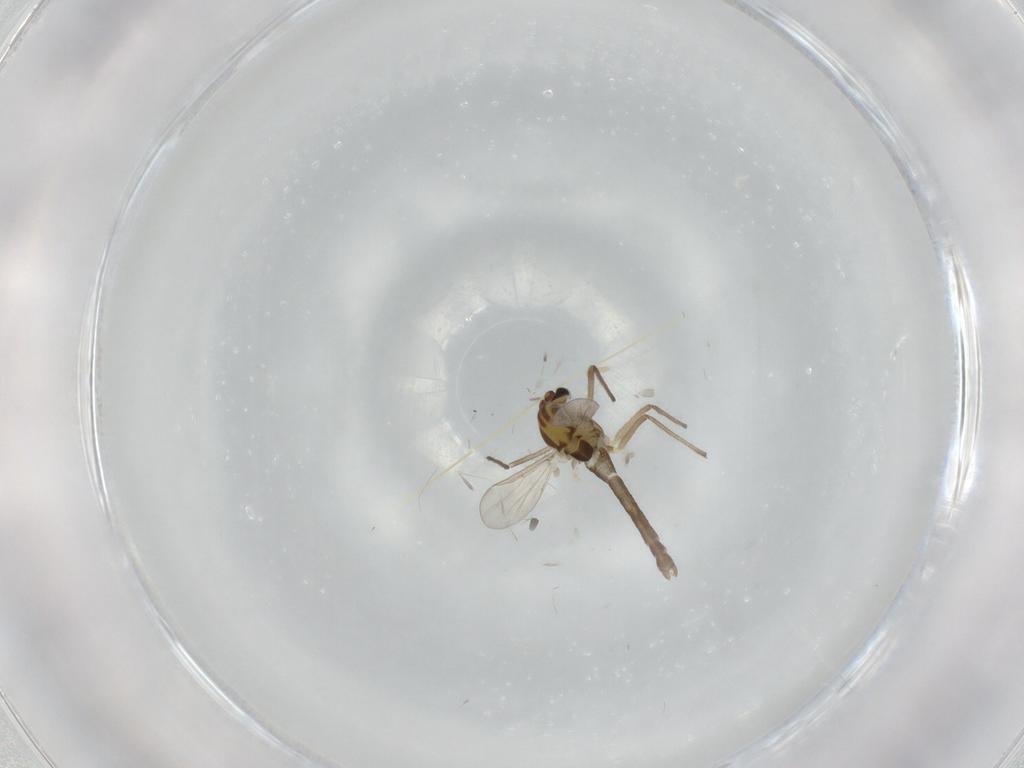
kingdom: Animalia
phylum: Arthropoda
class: Insecta
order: Diptera
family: Chironomidae
